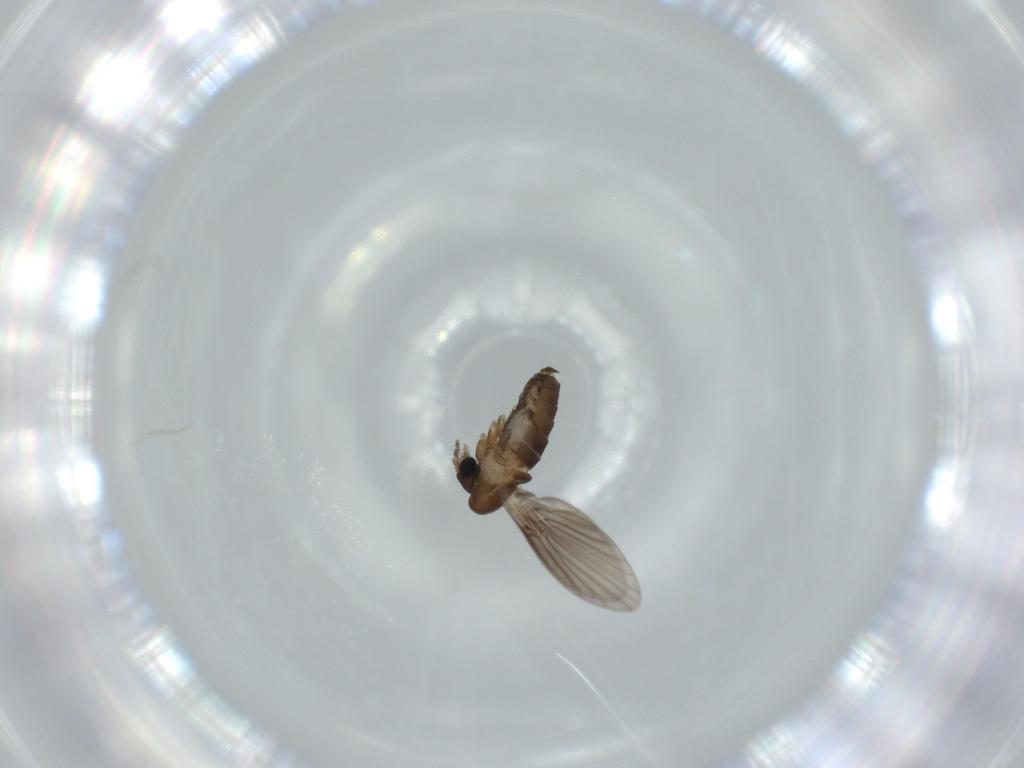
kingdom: Animalia
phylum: Arthropoda
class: Insecta
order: Diptera
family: Psychodidae
